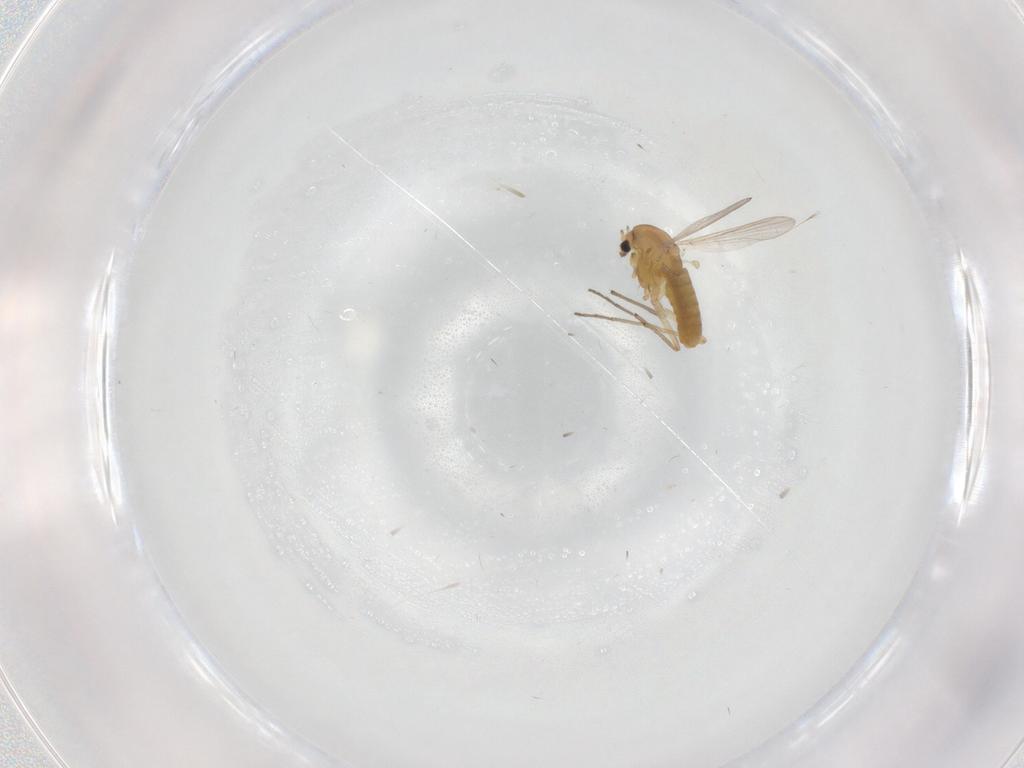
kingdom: Animalia
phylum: Arthropoda
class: Insecta
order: Diptera
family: Chironomidae
